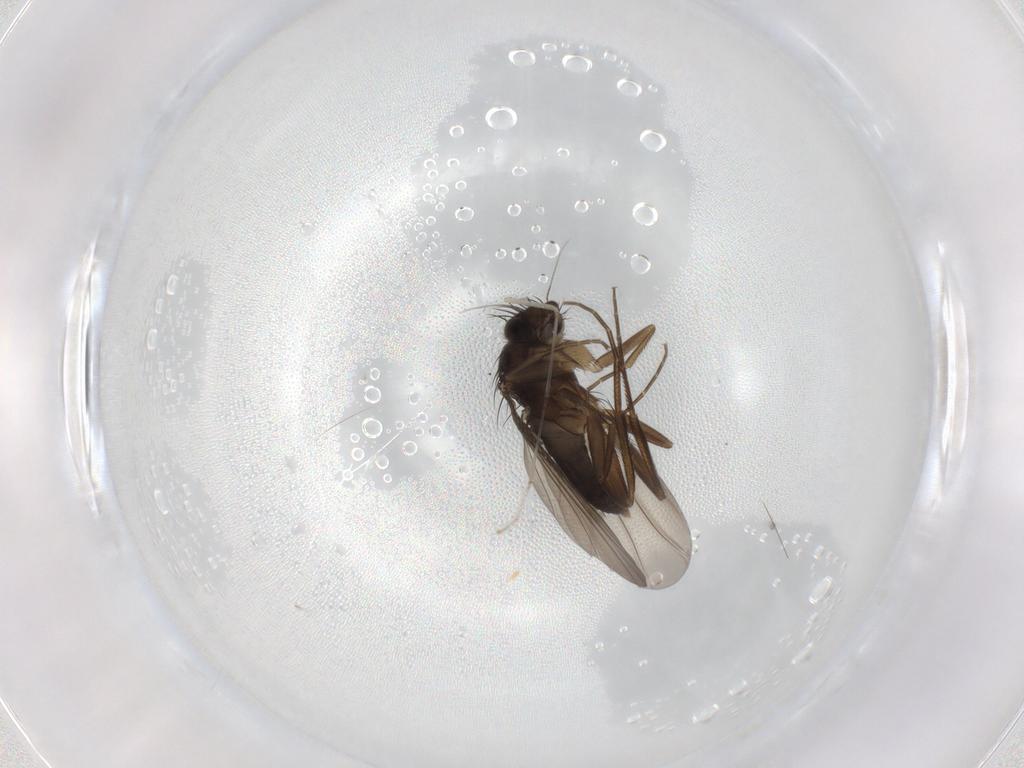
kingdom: Animalia
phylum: Arthropoda
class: Insecta
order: Diptera
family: Phoridae
